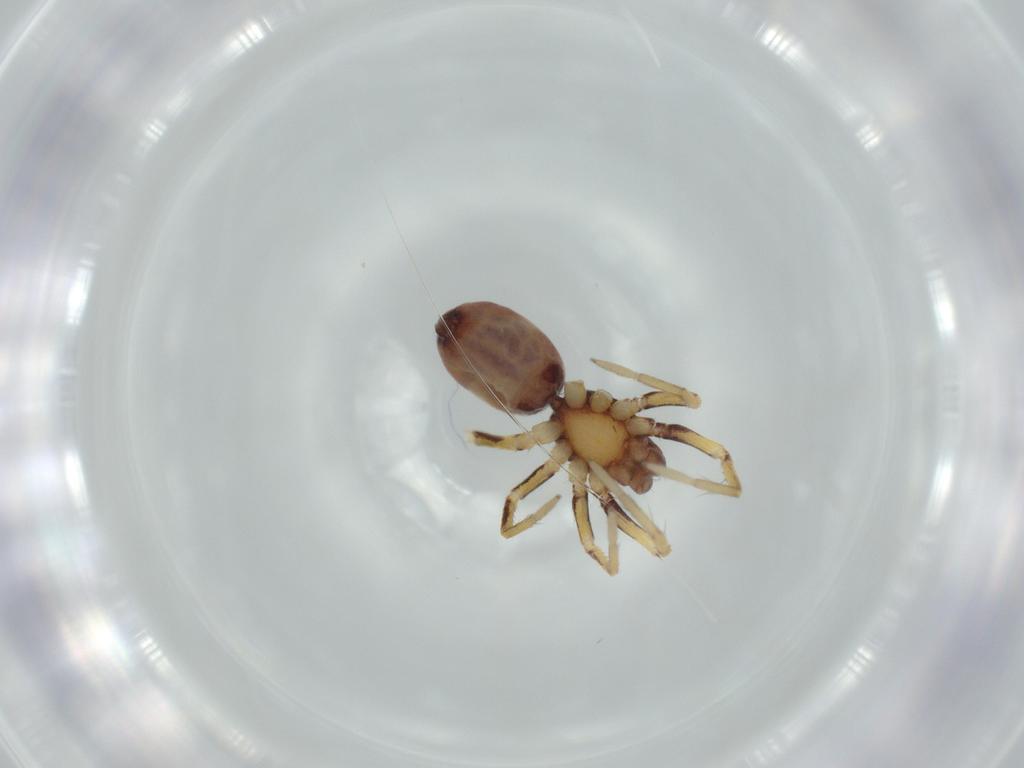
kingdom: Animalia
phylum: Arthropoda
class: Arachnida
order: Araneae
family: Corinnidae
